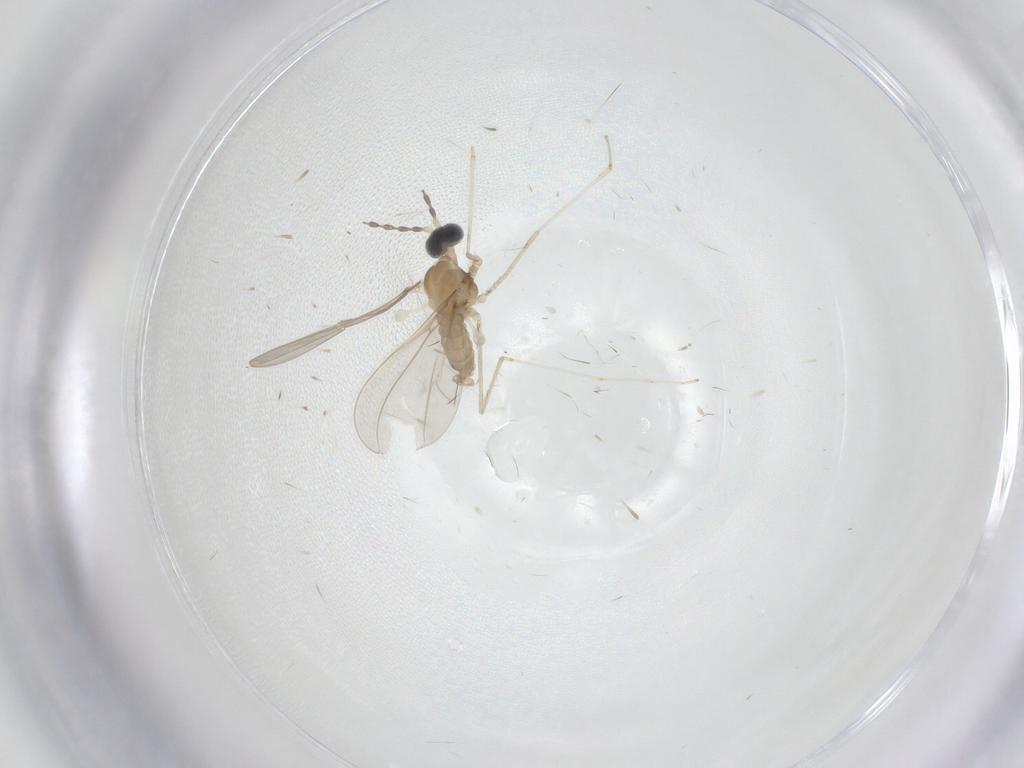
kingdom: Animalia
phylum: Arthropoda
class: Insecta
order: Diptera
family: Cecidomyiidae
